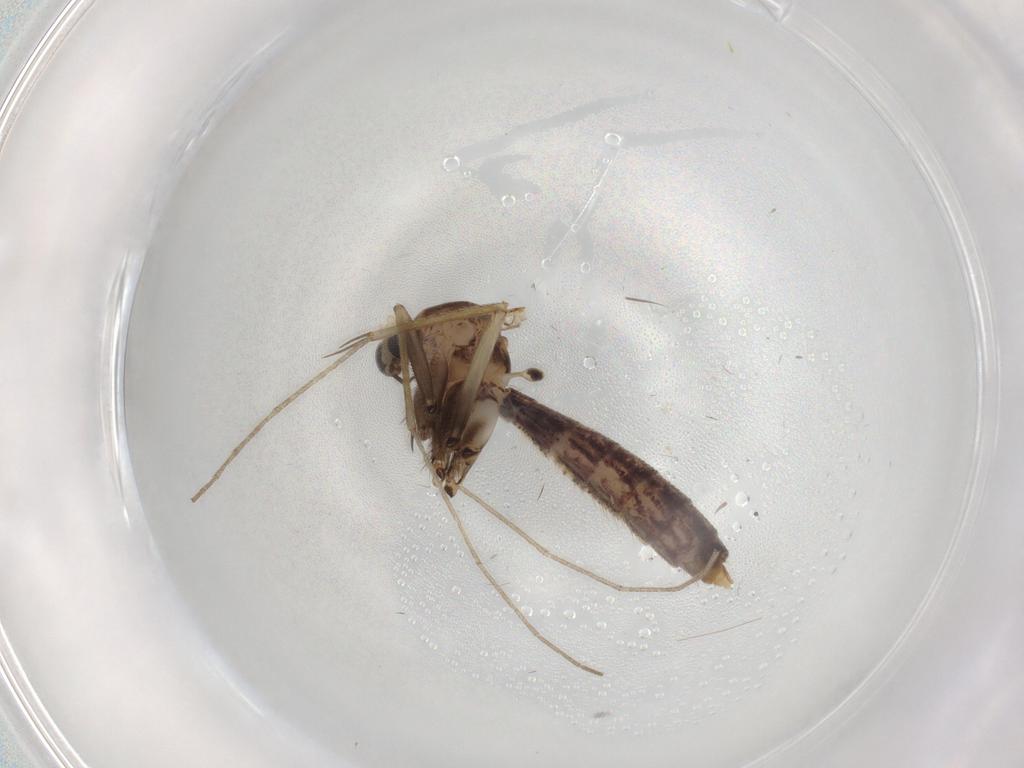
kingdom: Animalia
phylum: Arthropoda
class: Insecta
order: Diptera
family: Mycetophilidae
